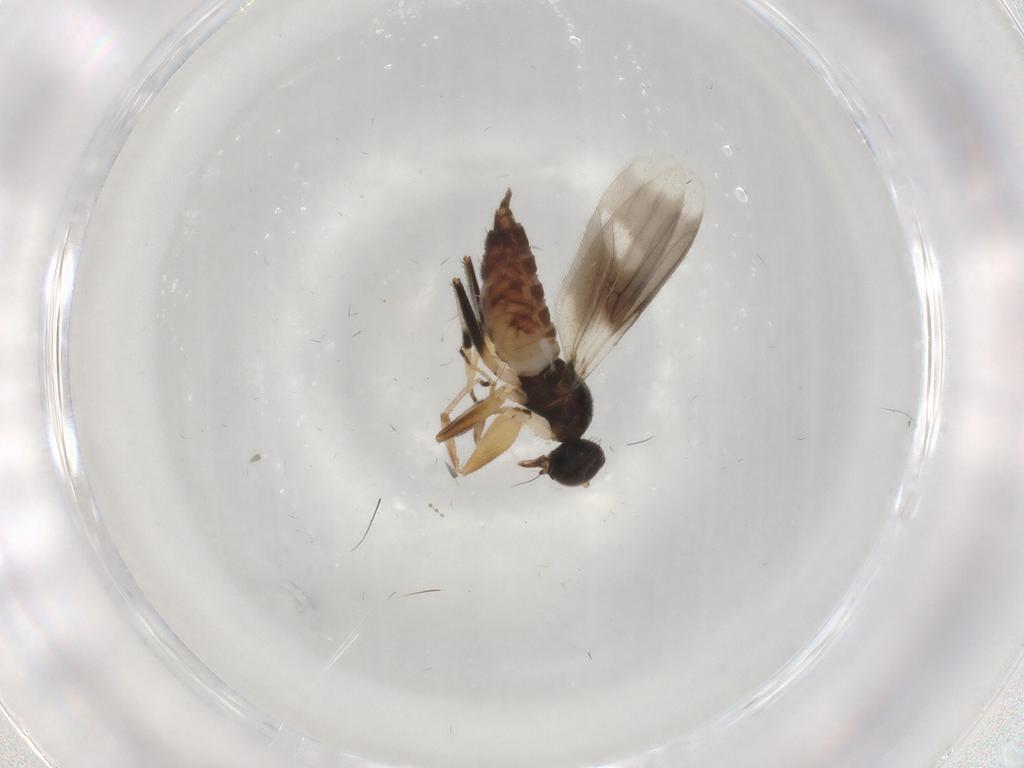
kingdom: Animalia
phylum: Arthropoda
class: Insecta
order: Diptera
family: Hybotidae
